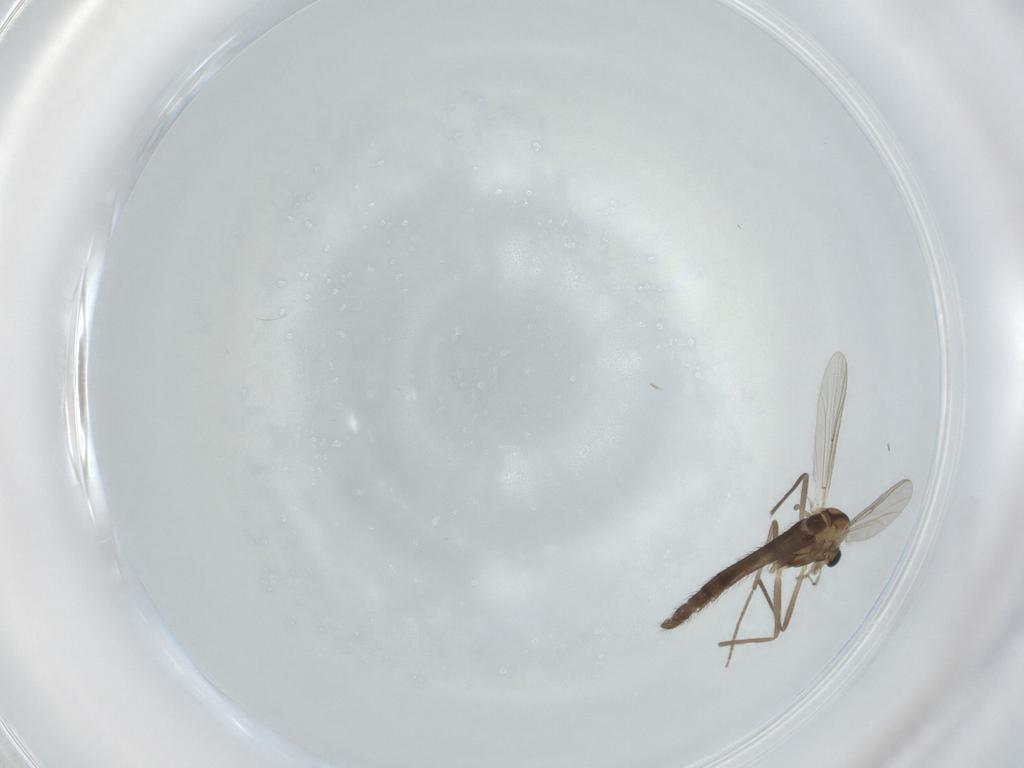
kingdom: Animalia
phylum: Arthropoda
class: Insecta
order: Diptera
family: Chironomidae
